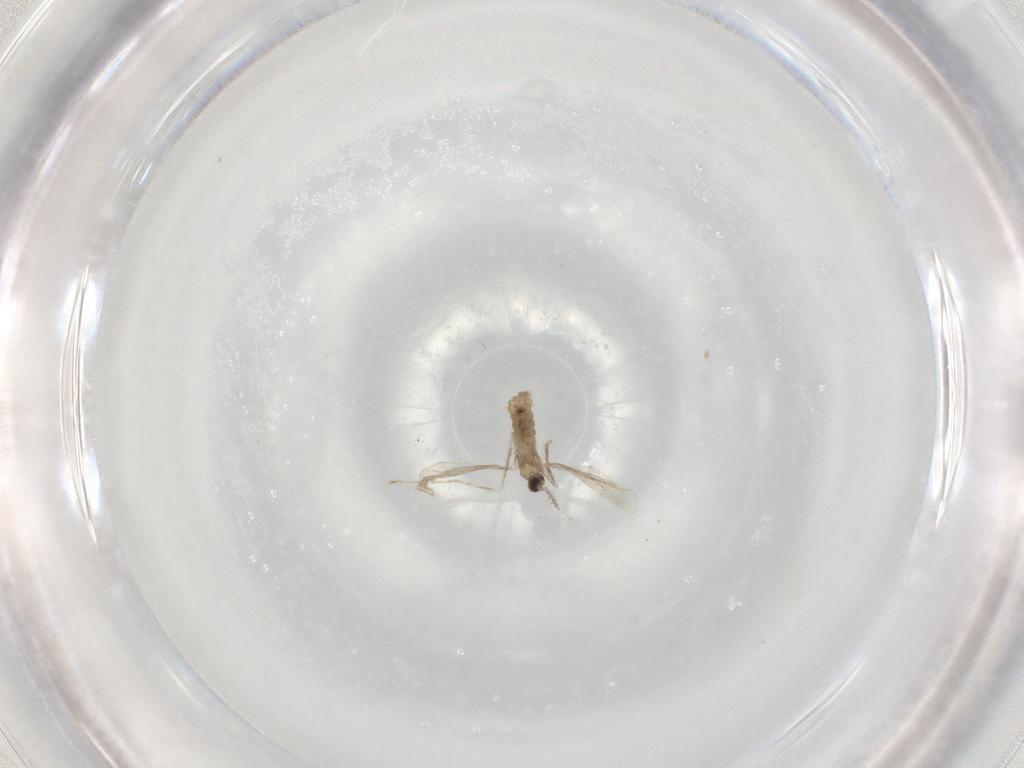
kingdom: Animalia
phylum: Arthropoda
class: Insecta
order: Diptera
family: Cecidomyiidae
